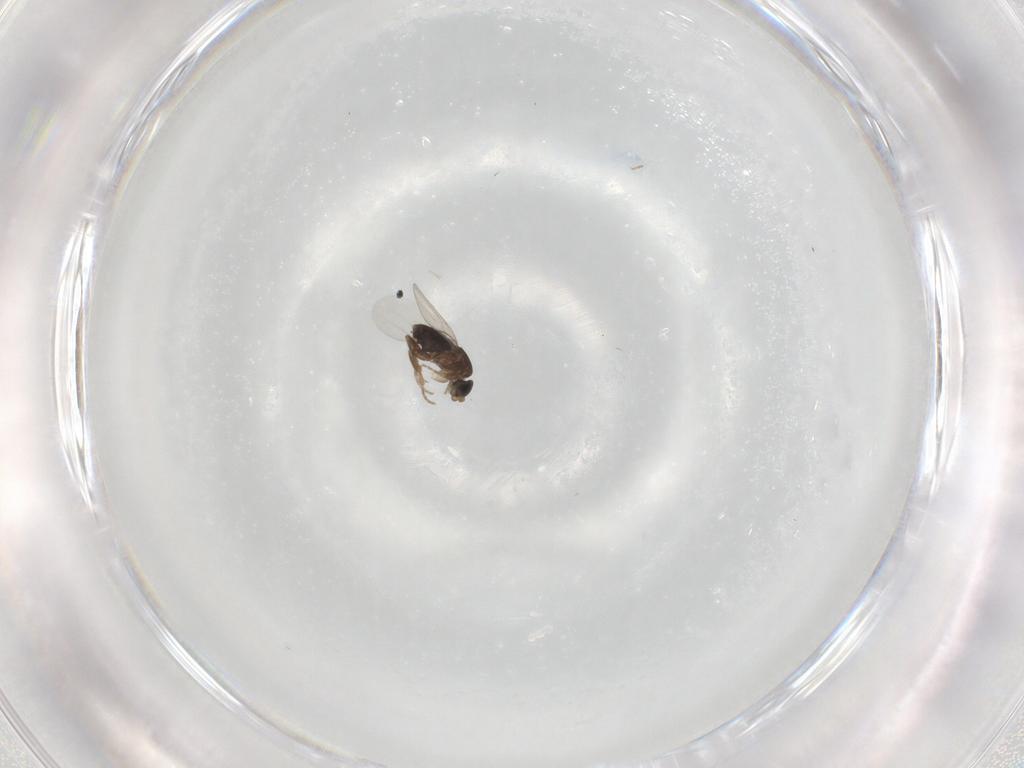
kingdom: Animalia
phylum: Arthropoda
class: Insecta
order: Diptera
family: Phoridae
